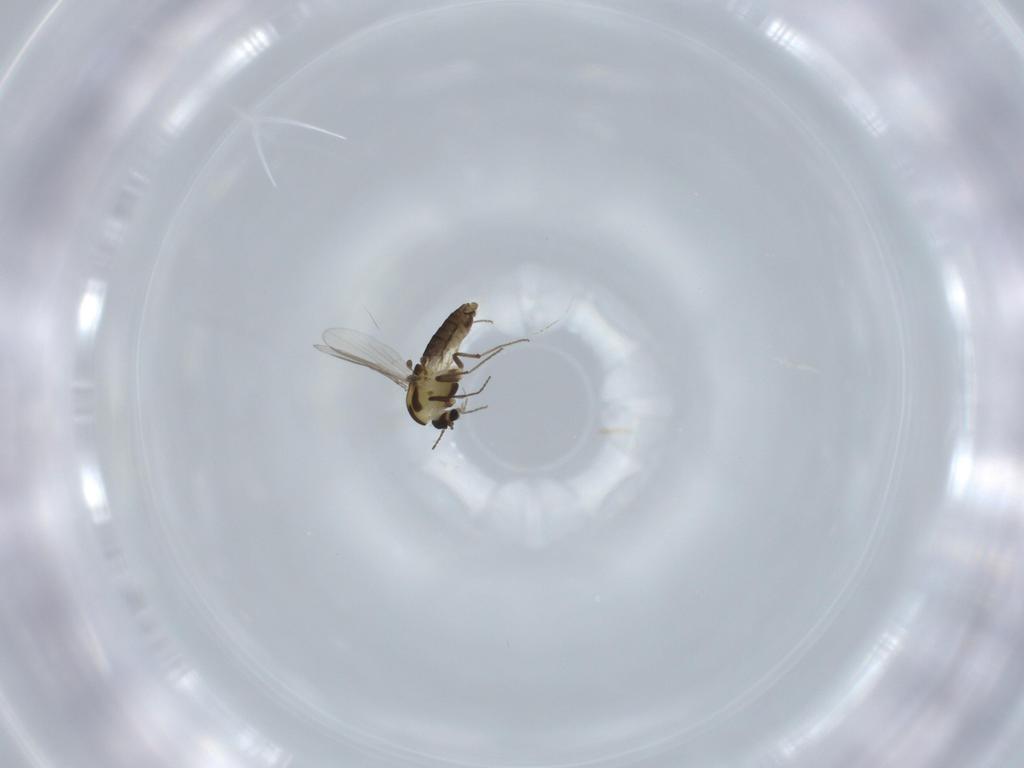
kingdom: Animalia
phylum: Arthropoda
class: Insecta
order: Diptera
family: Chironomidae
